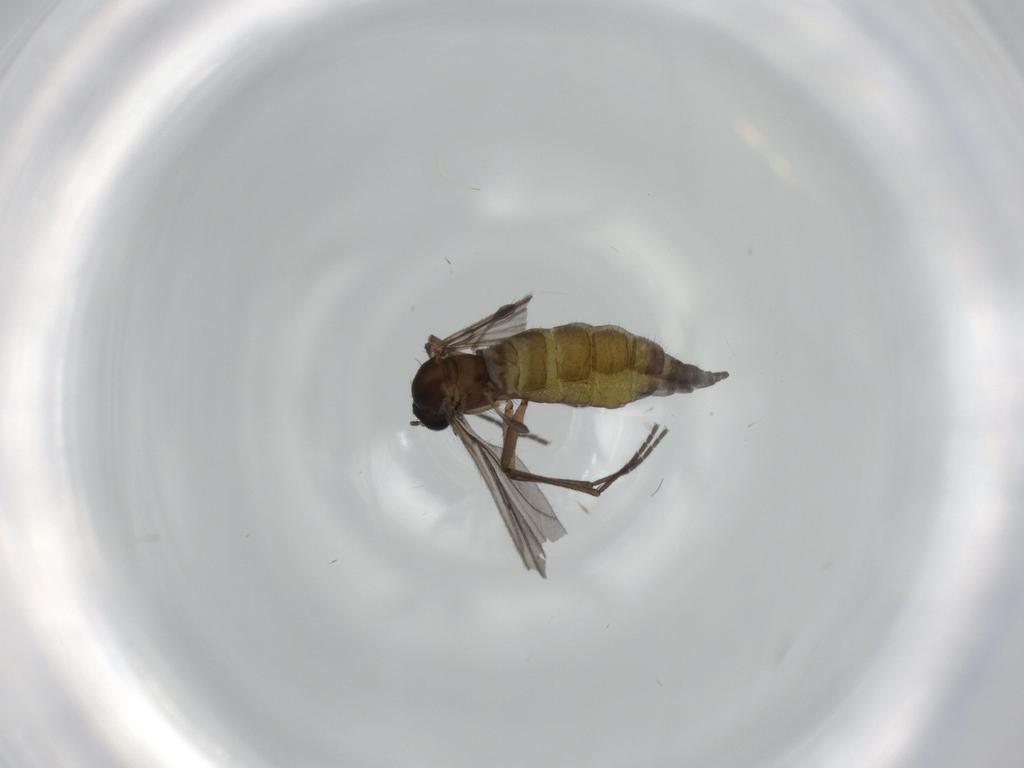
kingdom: Animalia
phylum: Arthropoda
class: Insecta
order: Diptera
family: Sciaridae
